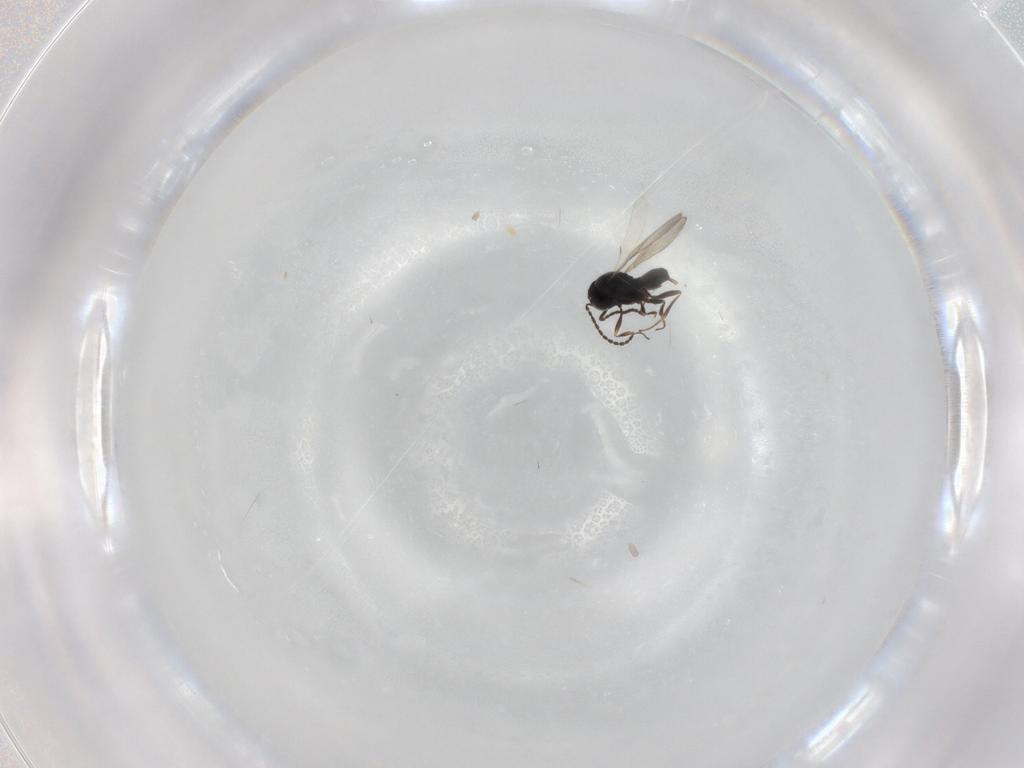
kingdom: Animalia
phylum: Arthropoda
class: Insecta
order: Hymenoptera
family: Scelionidae
